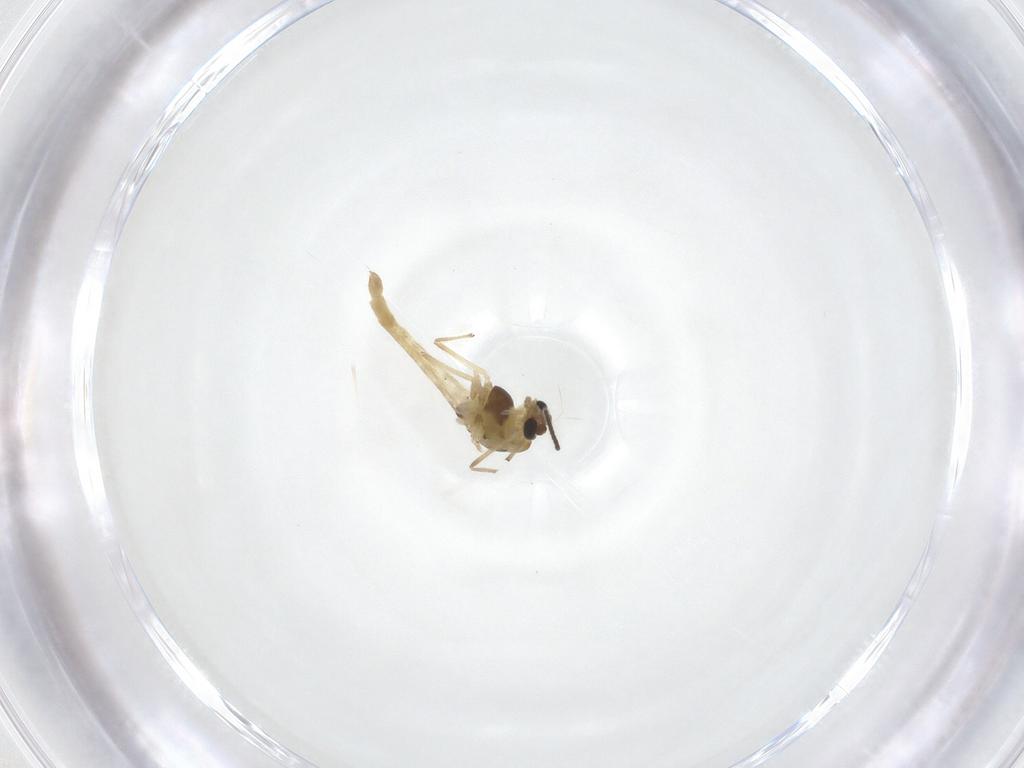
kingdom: Animalia
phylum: Arthropoda
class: Insecta
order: Diptera
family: Chironomidae
